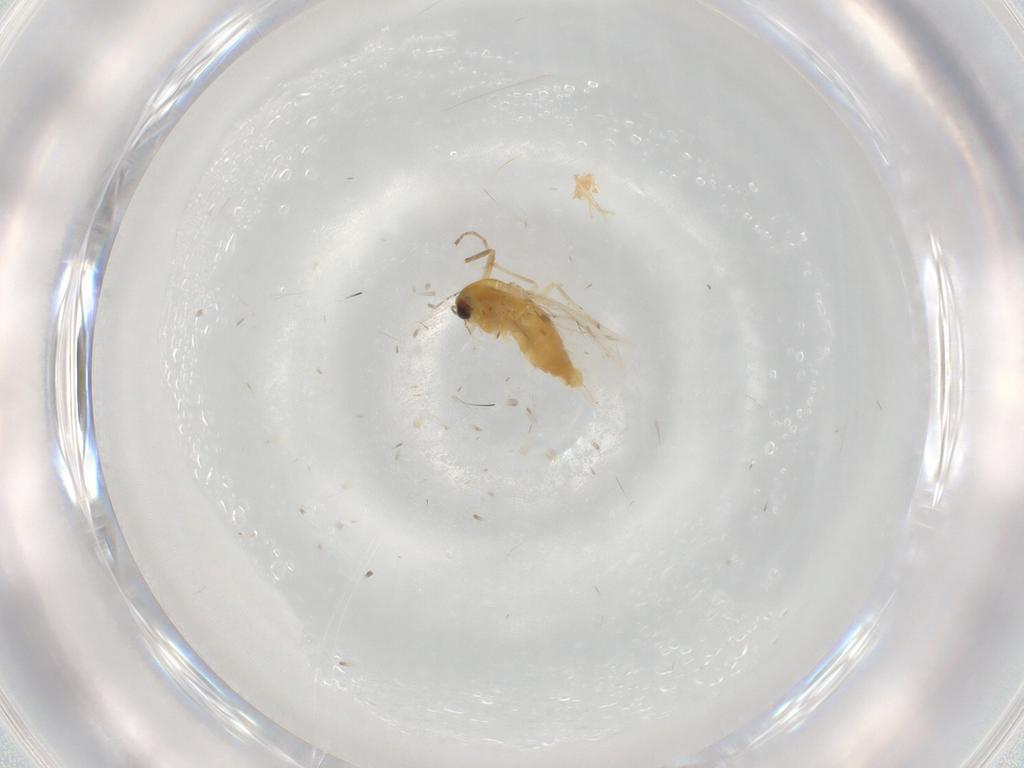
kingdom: Animalia
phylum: Arthropoda
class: Insecta
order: Diptera
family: Chironomidae
